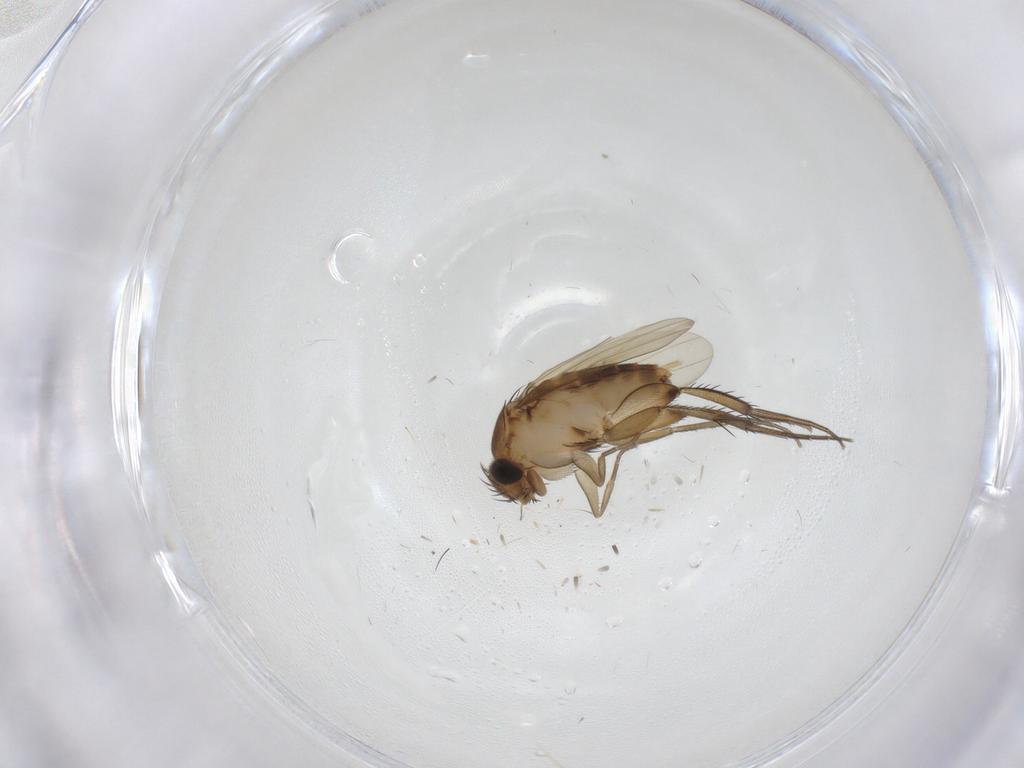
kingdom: Animalia
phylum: Arthropoda
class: Insecta
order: Diptera
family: Phoridae
